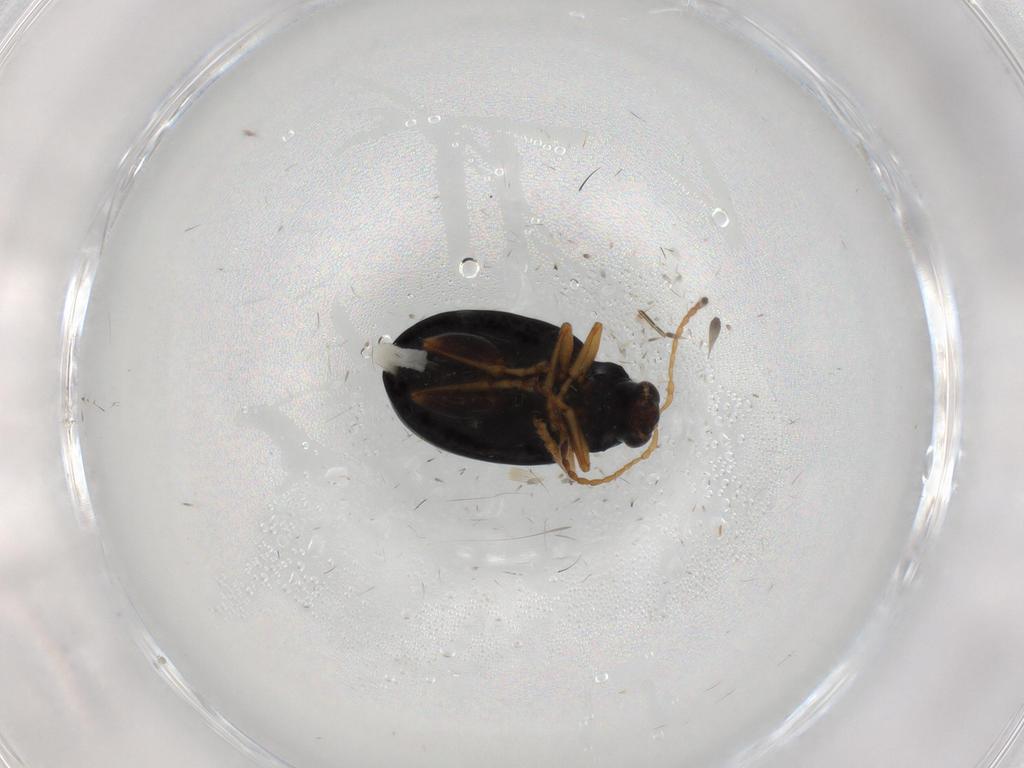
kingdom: Animalia
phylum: Arthropoda
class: Insecta
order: Coleoptera
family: Chrysomelidae
